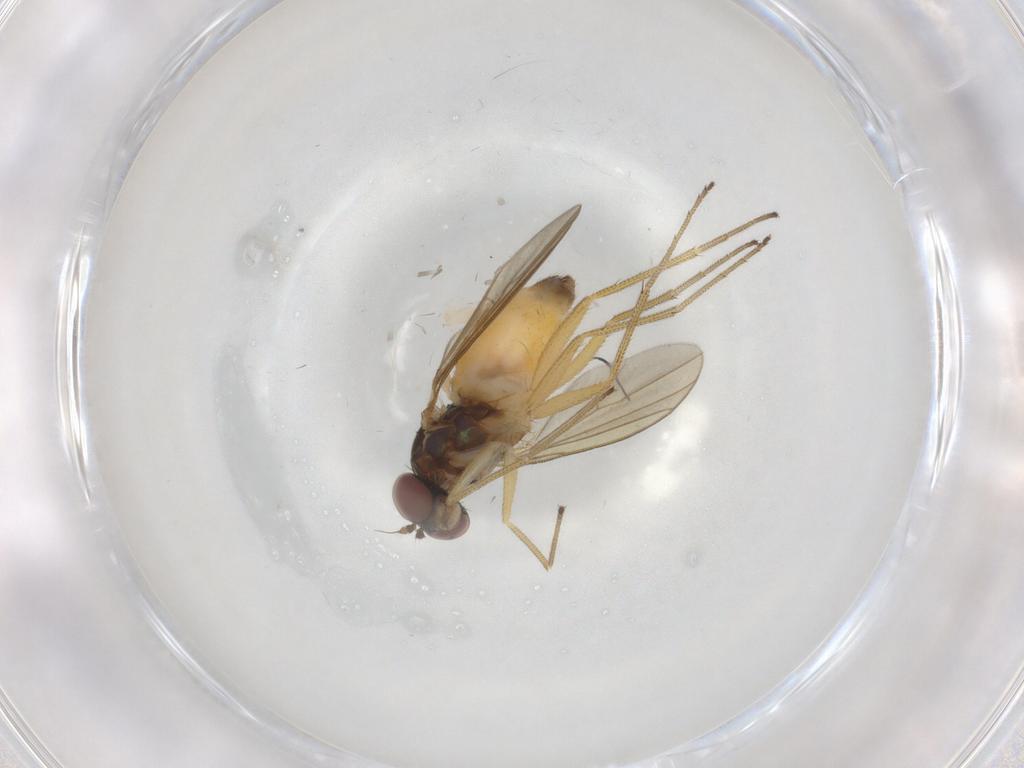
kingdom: Animalia
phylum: Arthropoda
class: Insecta
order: Diptera
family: Dolichopodidae
